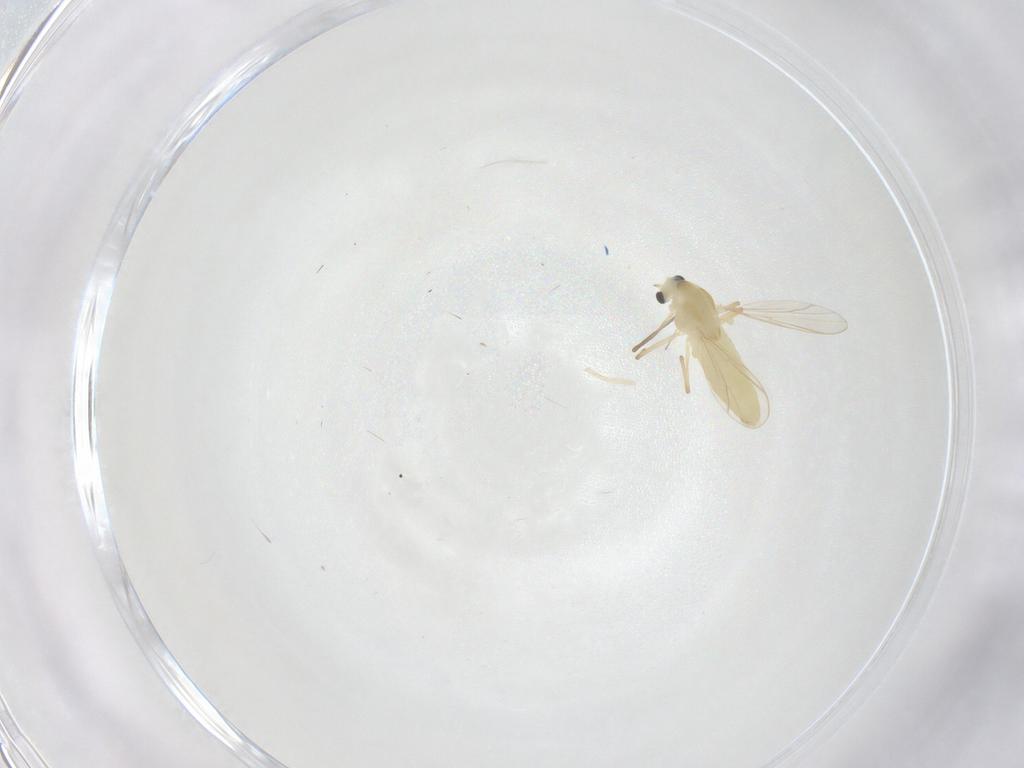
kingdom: Animalia
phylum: Arthropoda
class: Insecta
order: Diptera
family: Chironomidae
